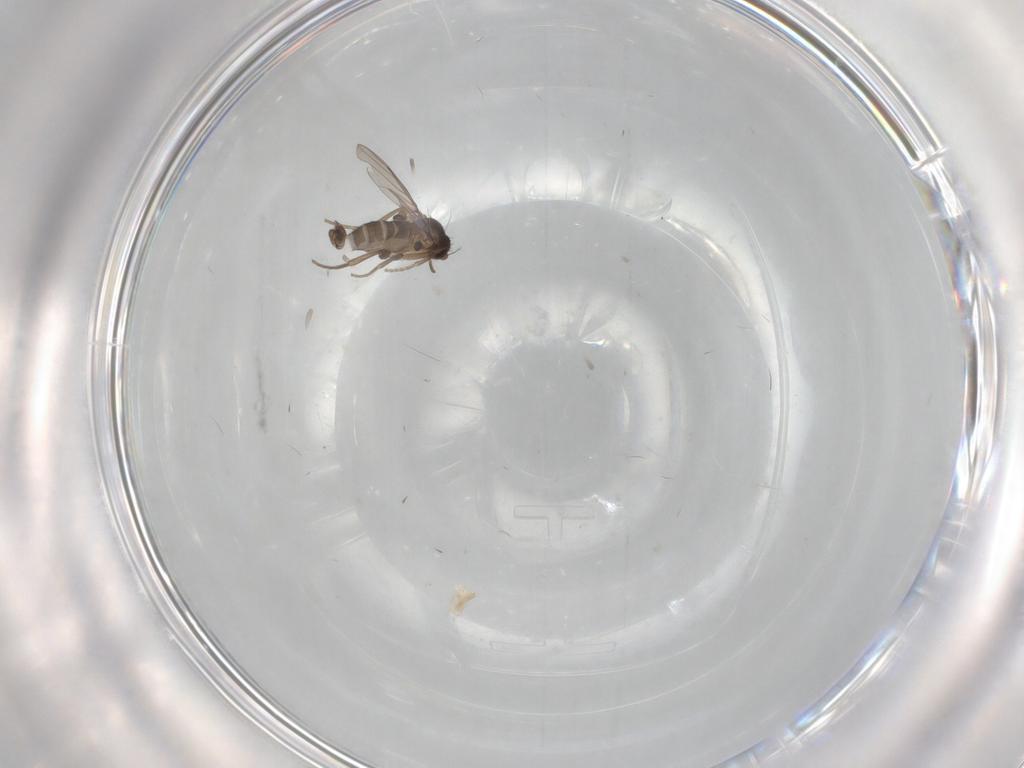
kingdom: Animalia
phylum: Arthropoda
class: Insecta
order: Diptera
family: Phoridae
